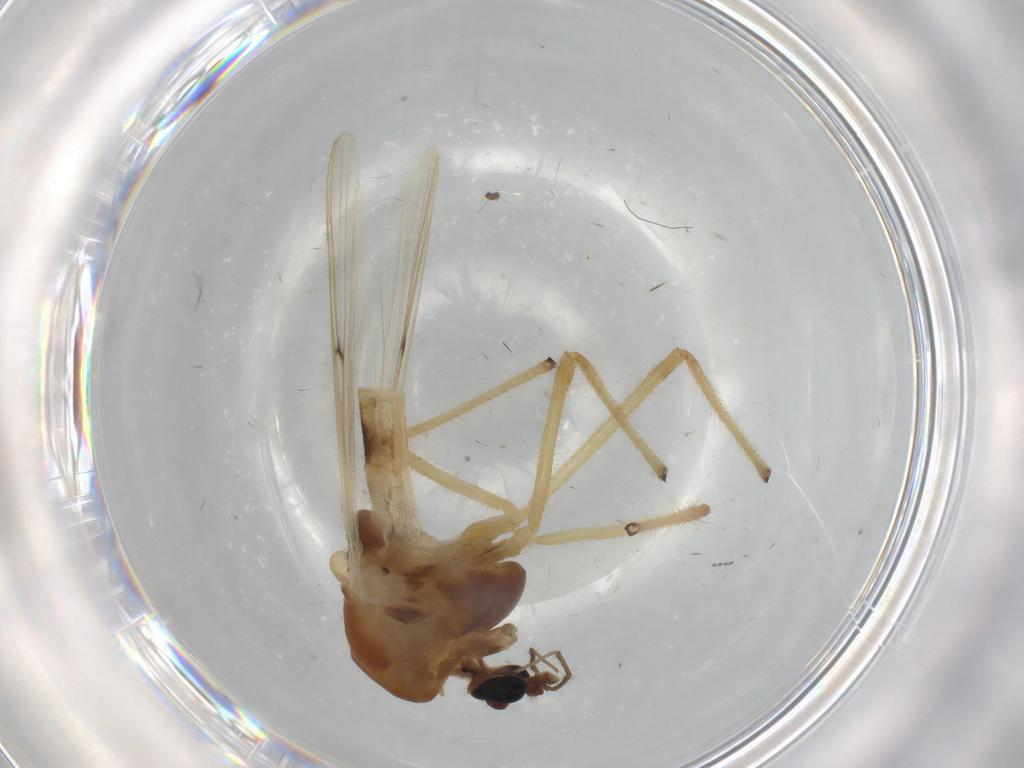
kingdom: Animalia
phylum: Arthropoda
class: Insecta
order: Diptera
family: Chironomidae
